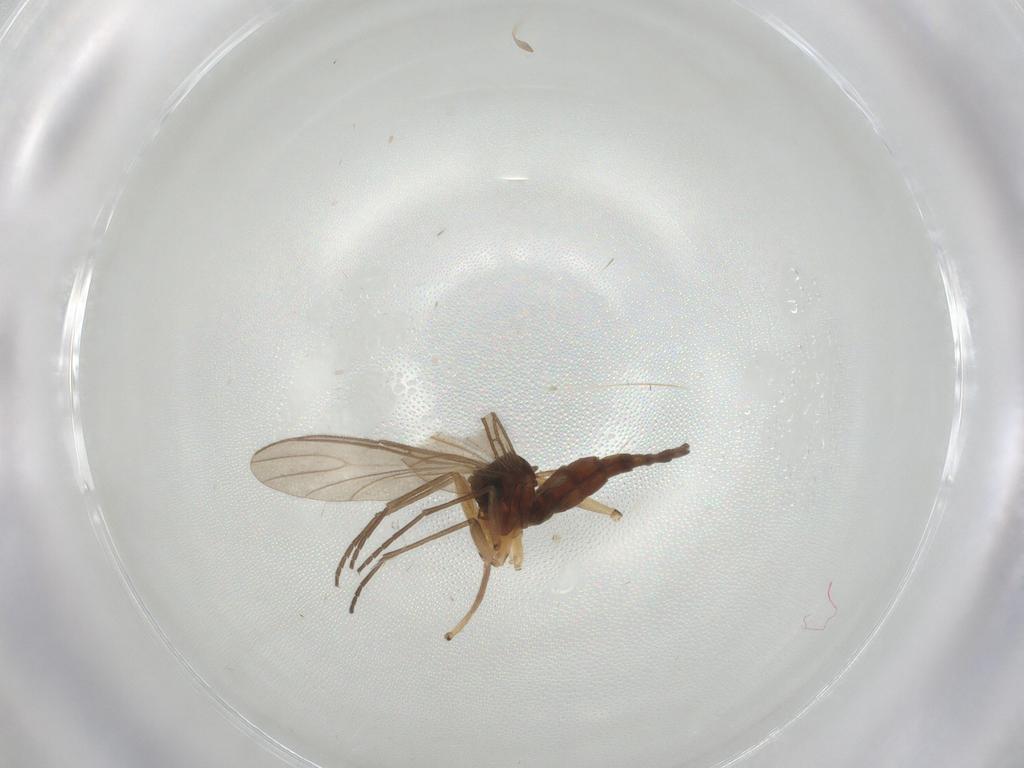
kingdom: Animalia
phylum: Arthropoda
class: Insecta
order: Diptera
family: Sciaridae
